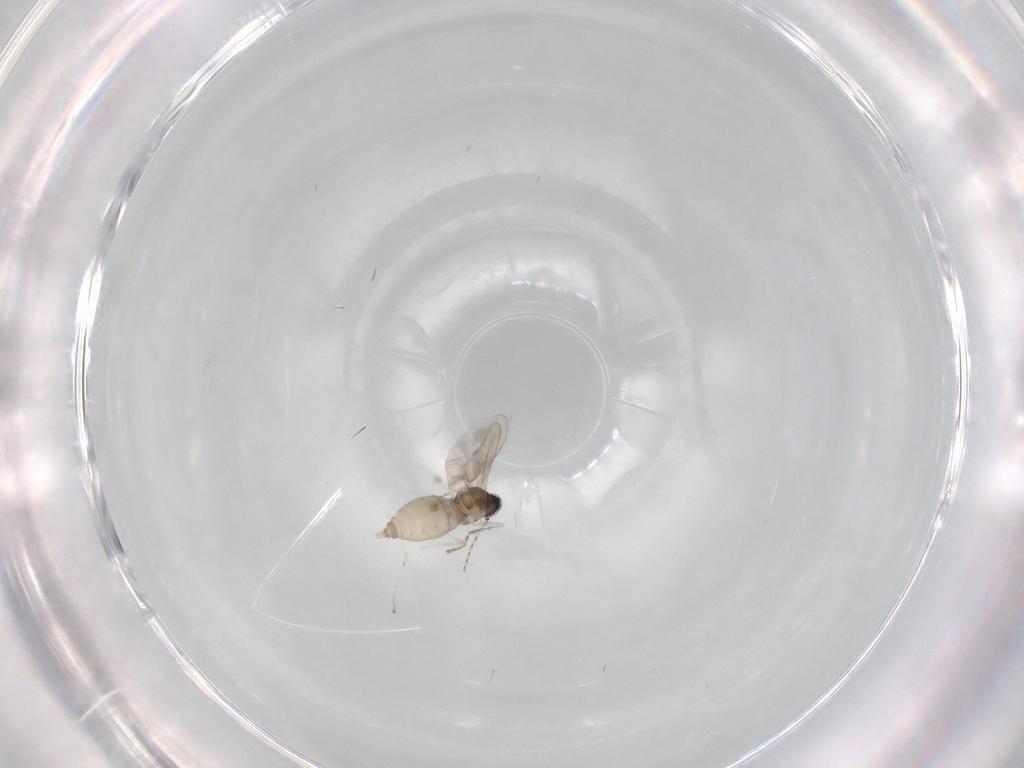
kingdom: Animalia
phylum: Arthropoda
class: Insecta
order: Diptera
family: Cecidomyiidae
